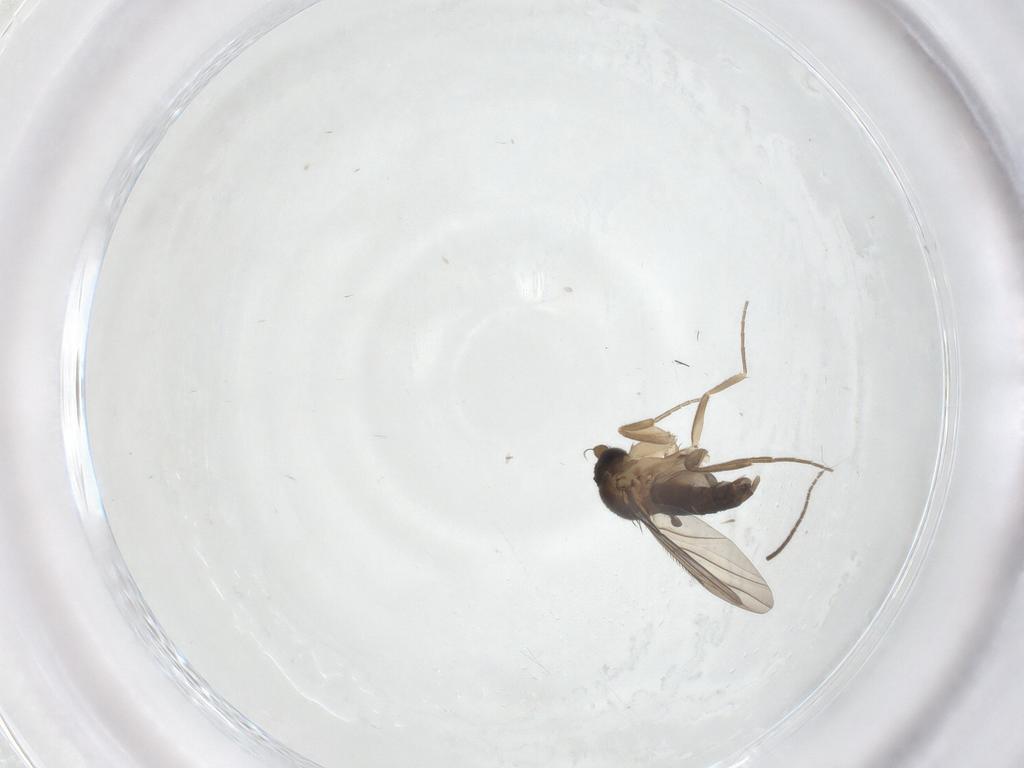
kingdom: Animalia
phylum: Arthropoda
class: Insecta
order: Diptera
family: Phoridae
